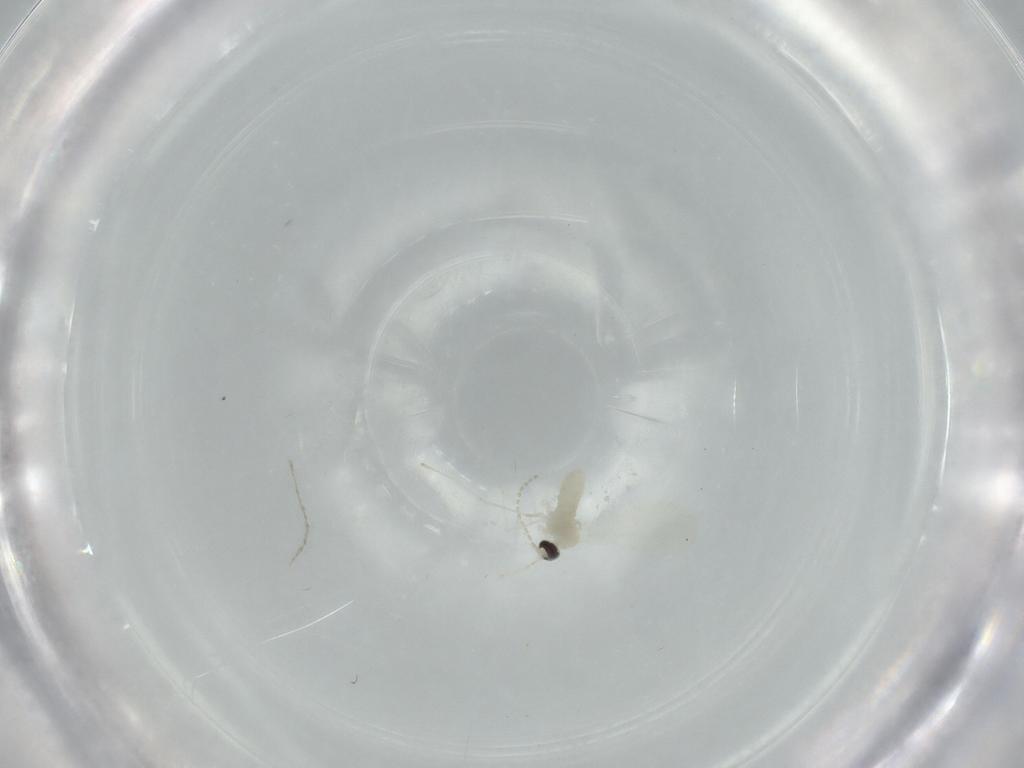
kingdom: Animalia
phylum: Arthropoda
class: Insecta
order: Diptera
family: Cecidomyiidae
